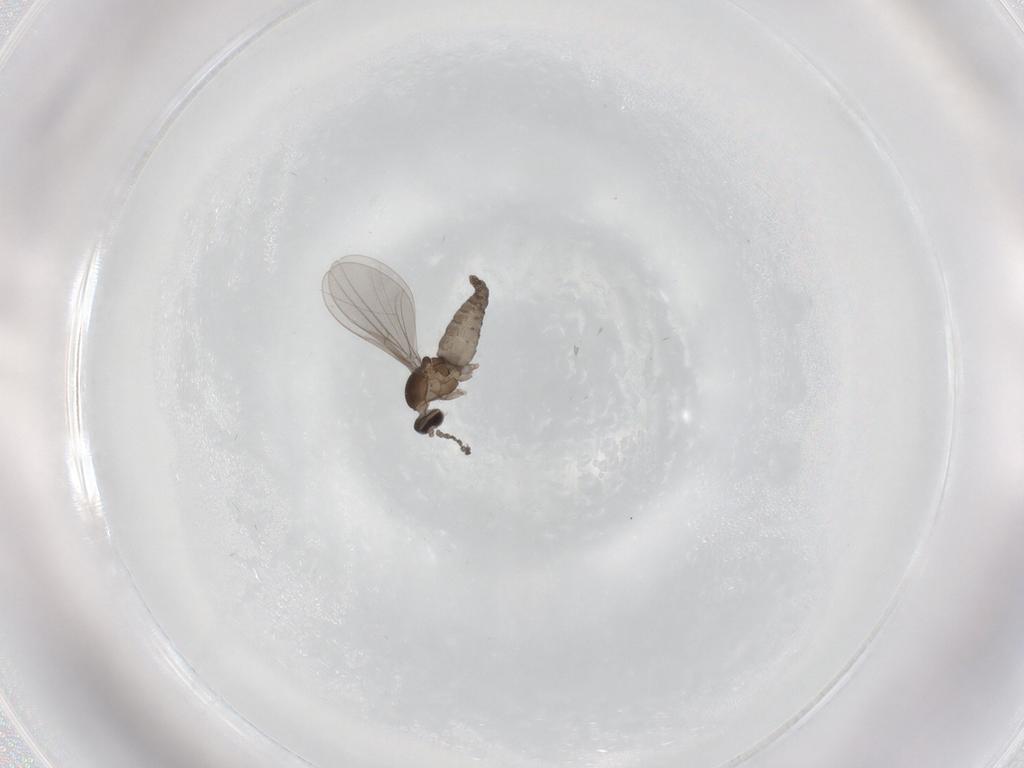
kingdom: Animalia
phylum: Arthropoda
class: Insecta
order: Diptera
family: Cecidomyiidae
